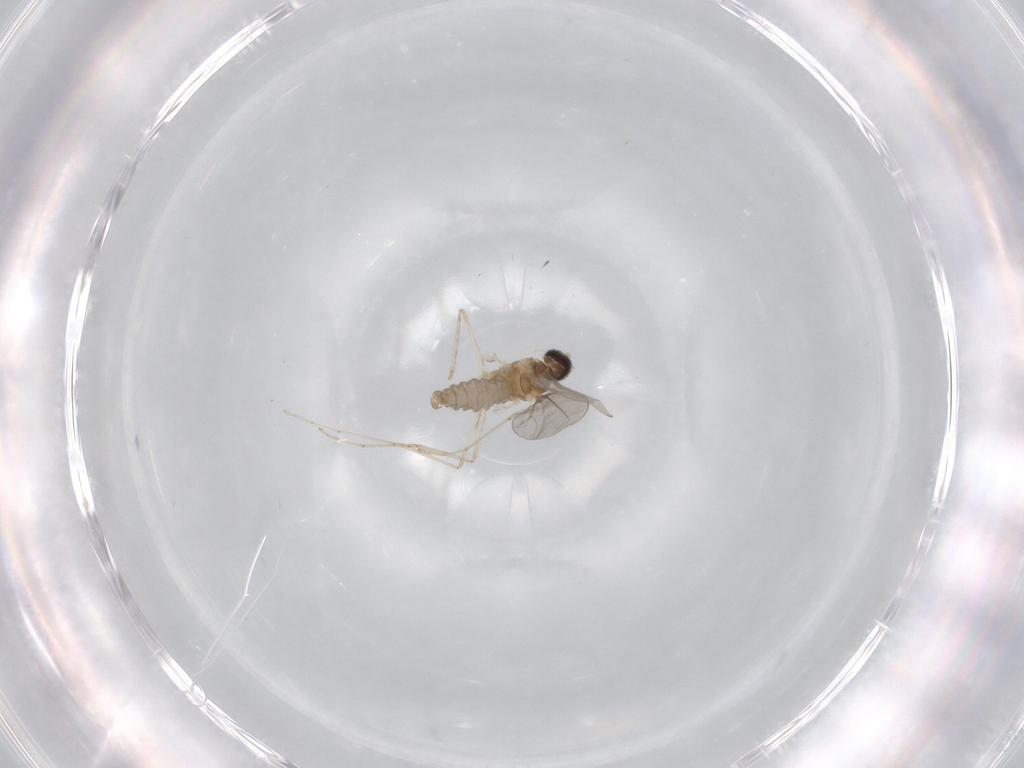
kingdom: Animalia
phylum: Arthropoda
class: Insecta
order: Diptera
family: Cecidomyiidae
